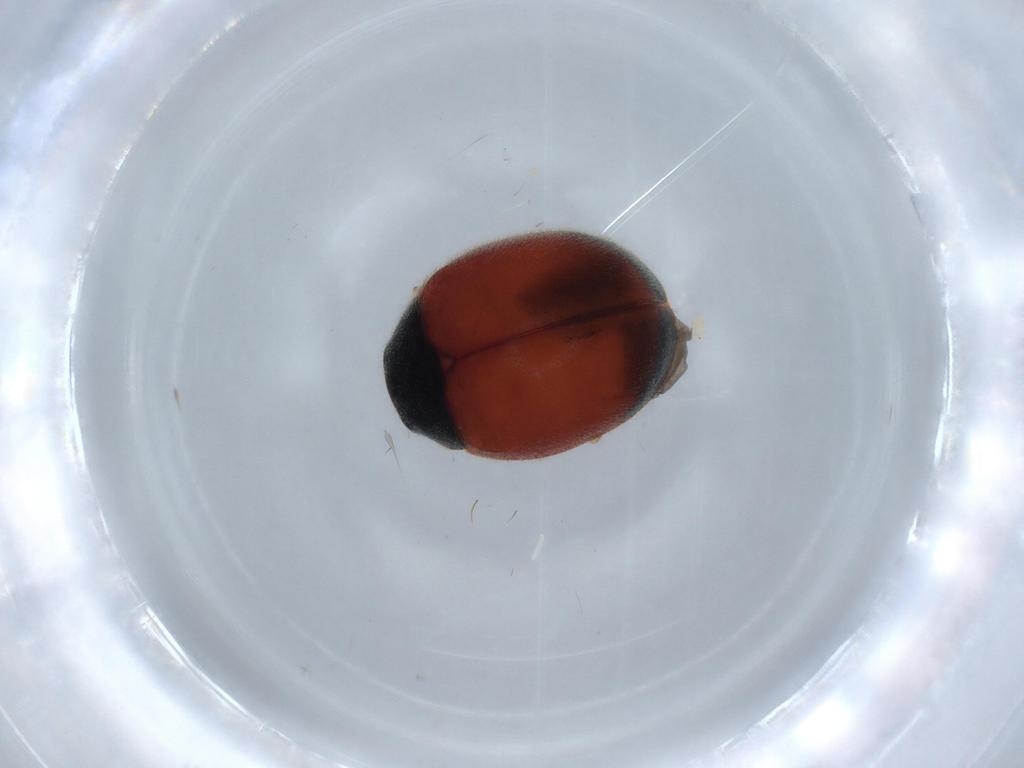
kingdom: Animalia
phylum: Arthropoda
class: Insecta
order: Coleoptera
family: Coccinellidae
